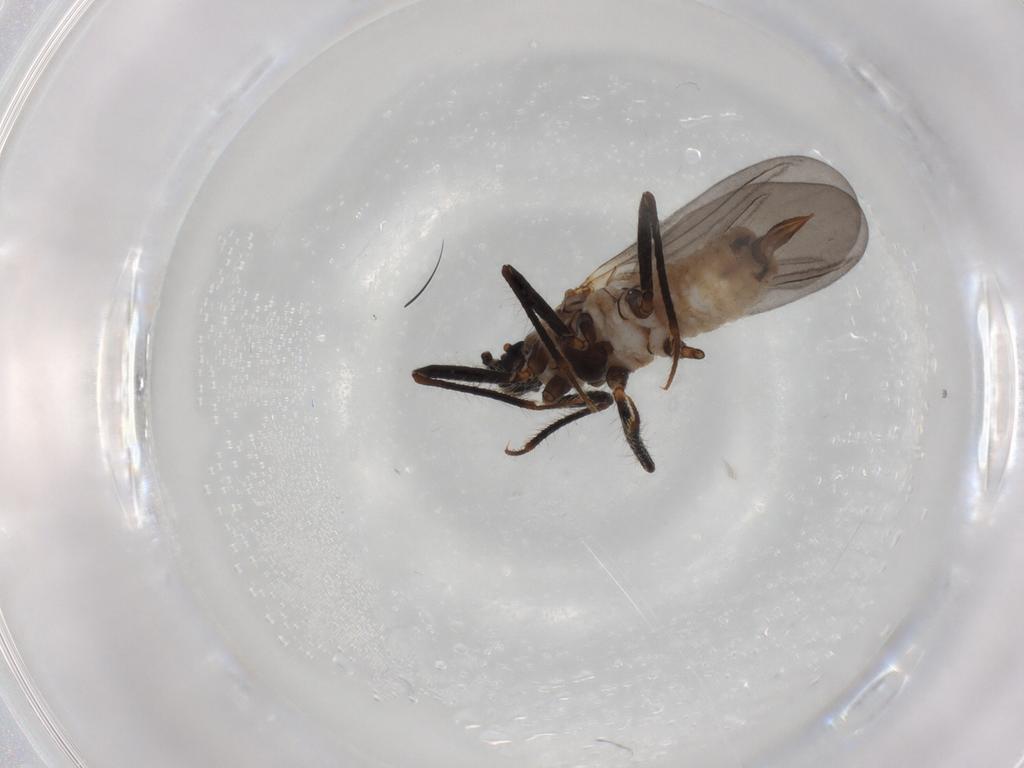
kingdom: Animalia
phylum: Arthropoda
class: Insecta
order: Hemiptera
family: Putoidae
